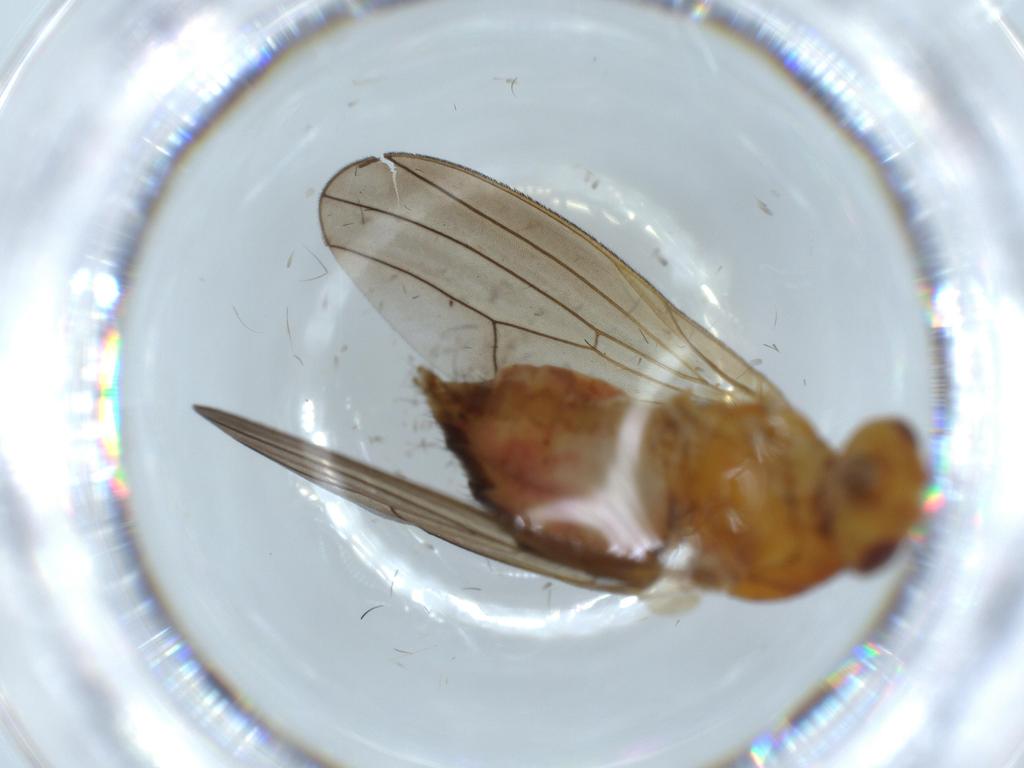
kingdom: Animalia
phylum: Arthropoda
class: Insecta
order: Diptera
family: Lauxaniidae
